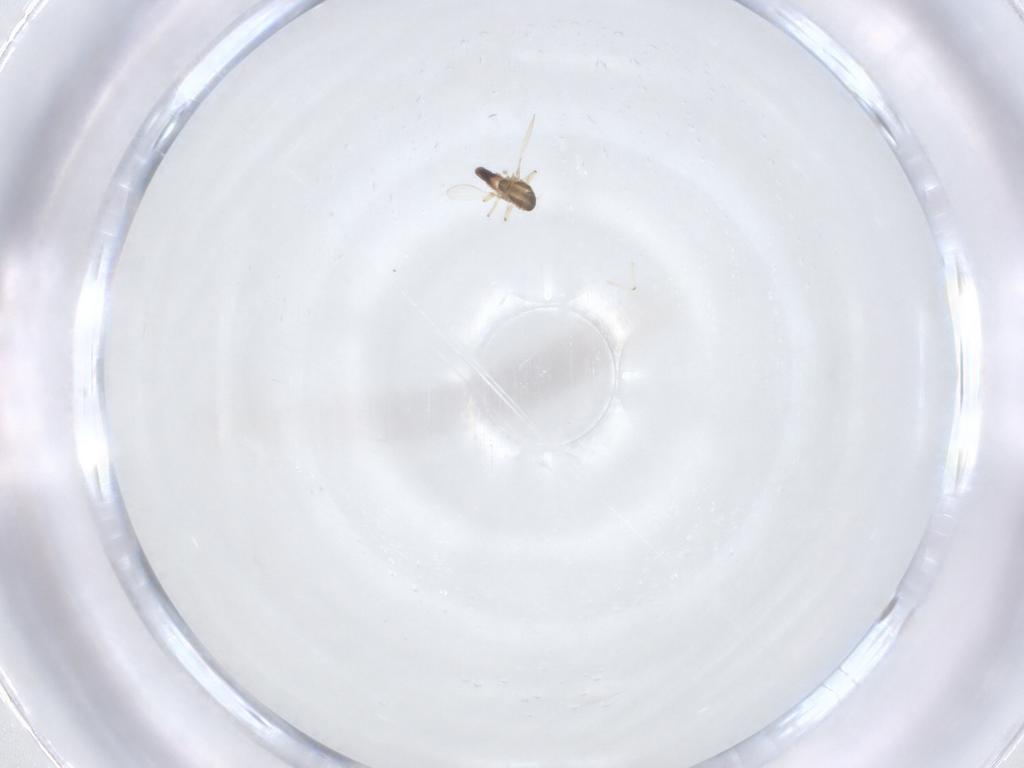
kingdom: Animalia
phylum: Arthropoda
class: Insecta
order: Diptera
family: Chironomidae
